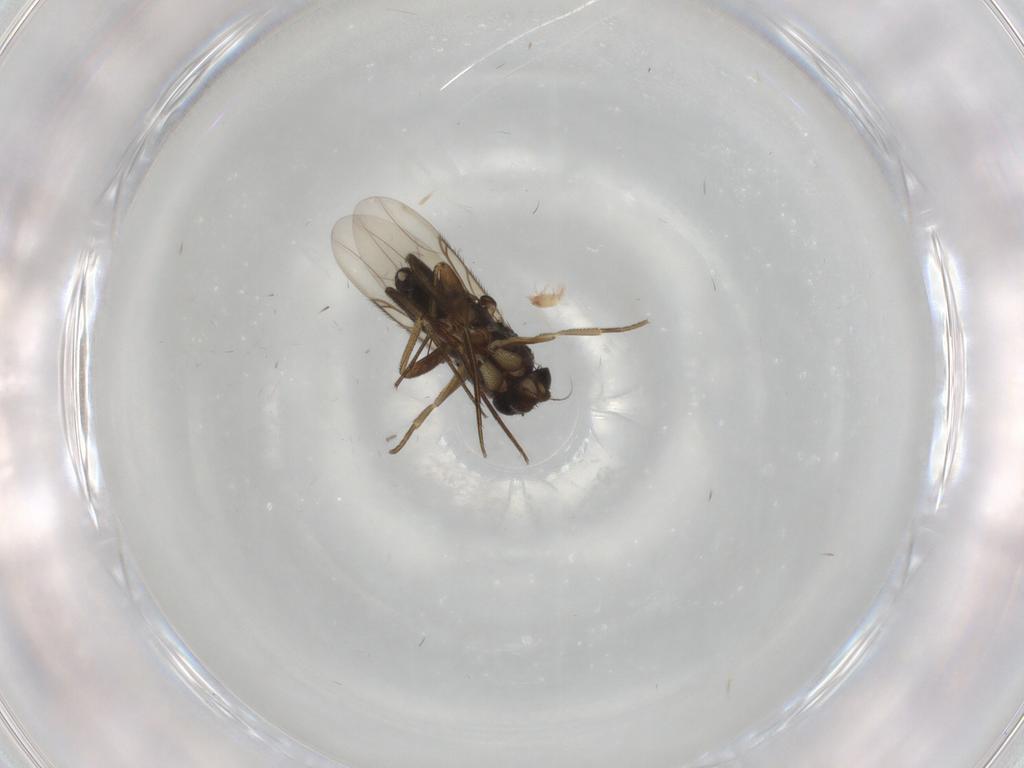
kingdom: Animalia
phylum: Arthropoda
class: Insecta
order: Diptera
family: Phoridae
